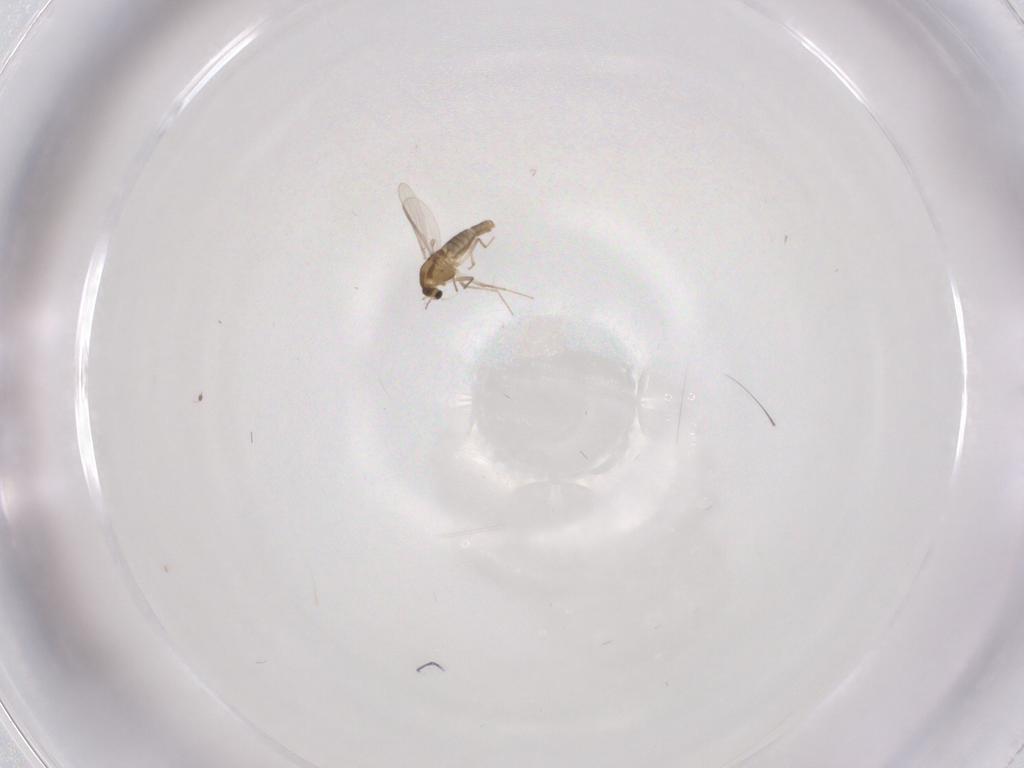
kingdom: Animalia
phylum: Arthropoda
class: Insecta
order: Diptera
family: Chironomidae
